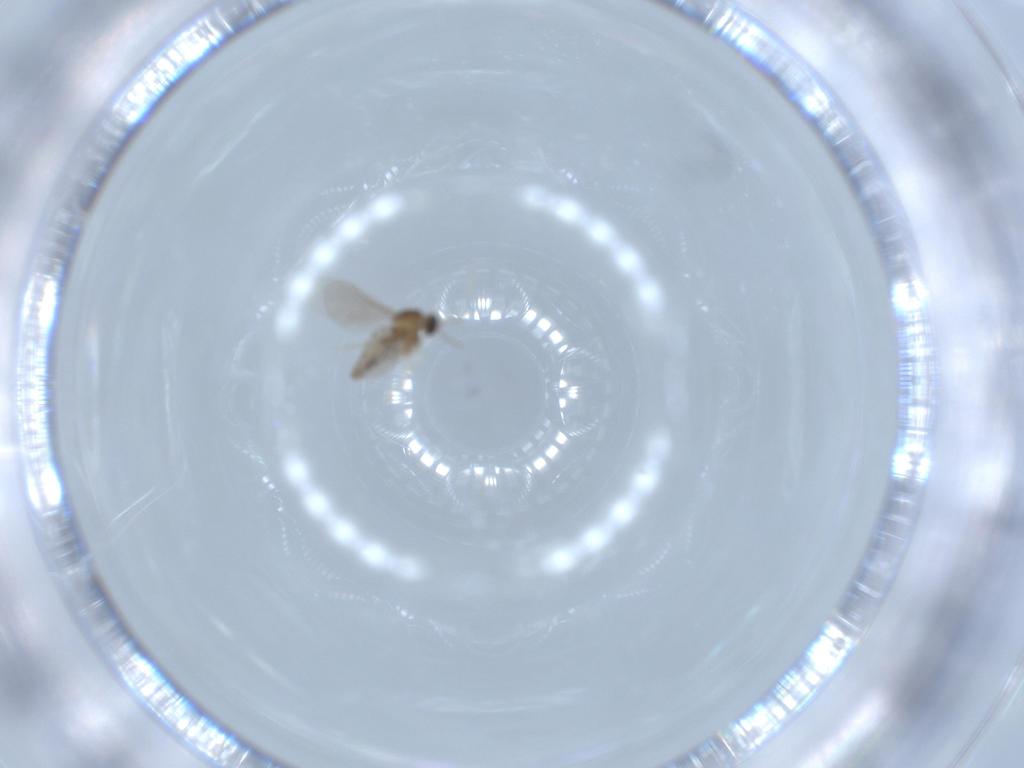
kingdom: Animalia
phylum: Arthropoda
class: Insecta
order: Diptera
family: Cecidomyiidae
